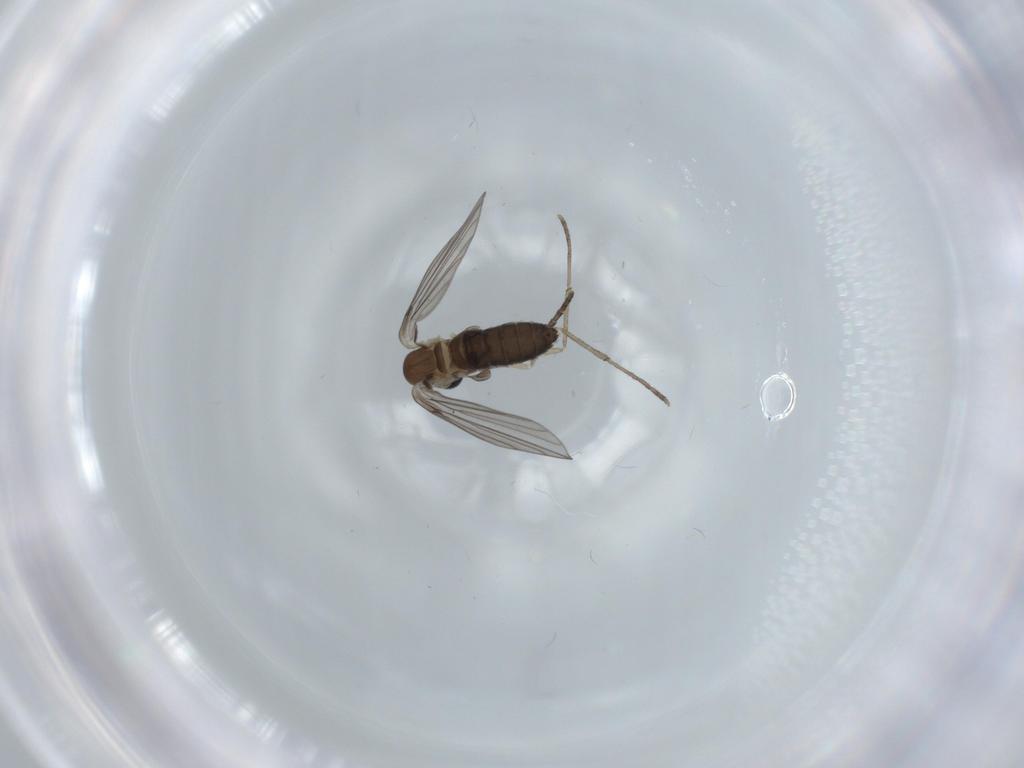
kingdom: Animalia
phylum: Arthropoda
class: Insecta
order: Diptera
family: Psychodidae
